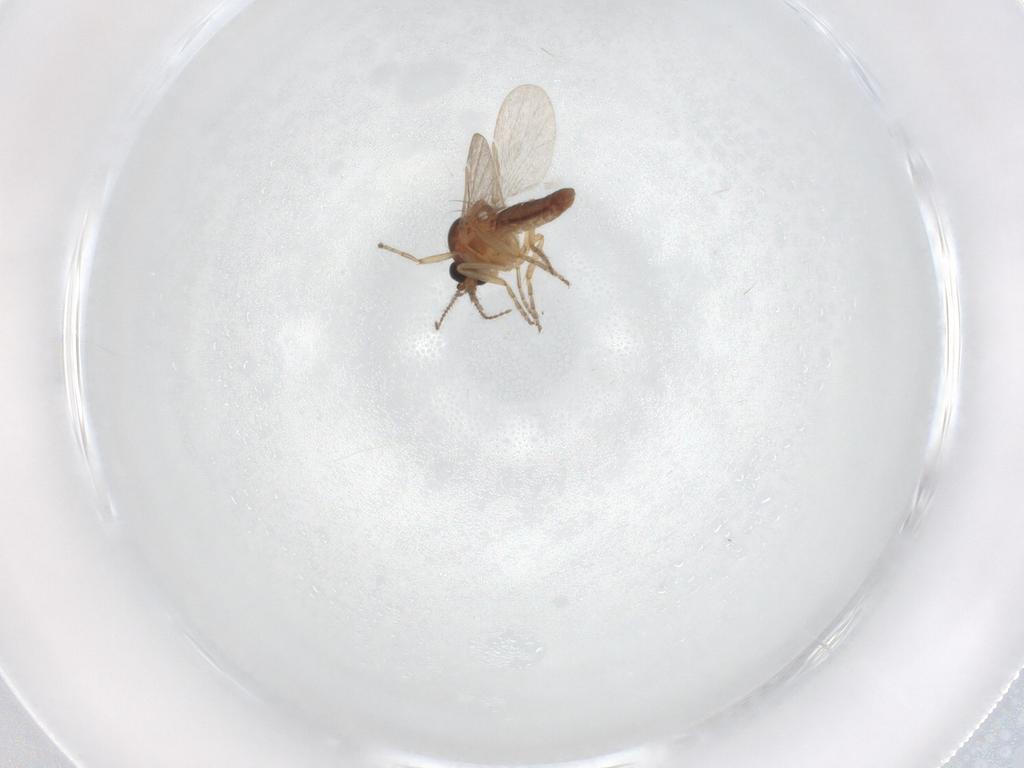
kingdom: Animalia
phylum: Arthropoda
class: Insecta
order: Diptera
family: Ceratopogonidae
